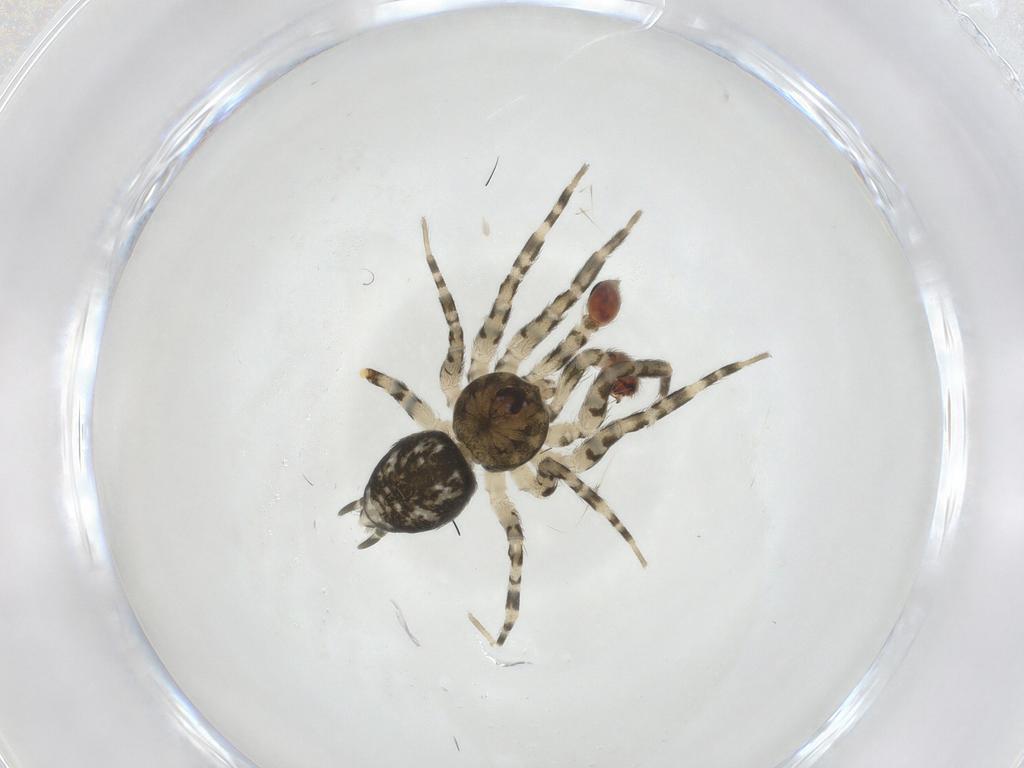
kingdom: Animalia
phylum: Arthropoda
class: Arachnida
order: Araneae
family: Oecobiidae
